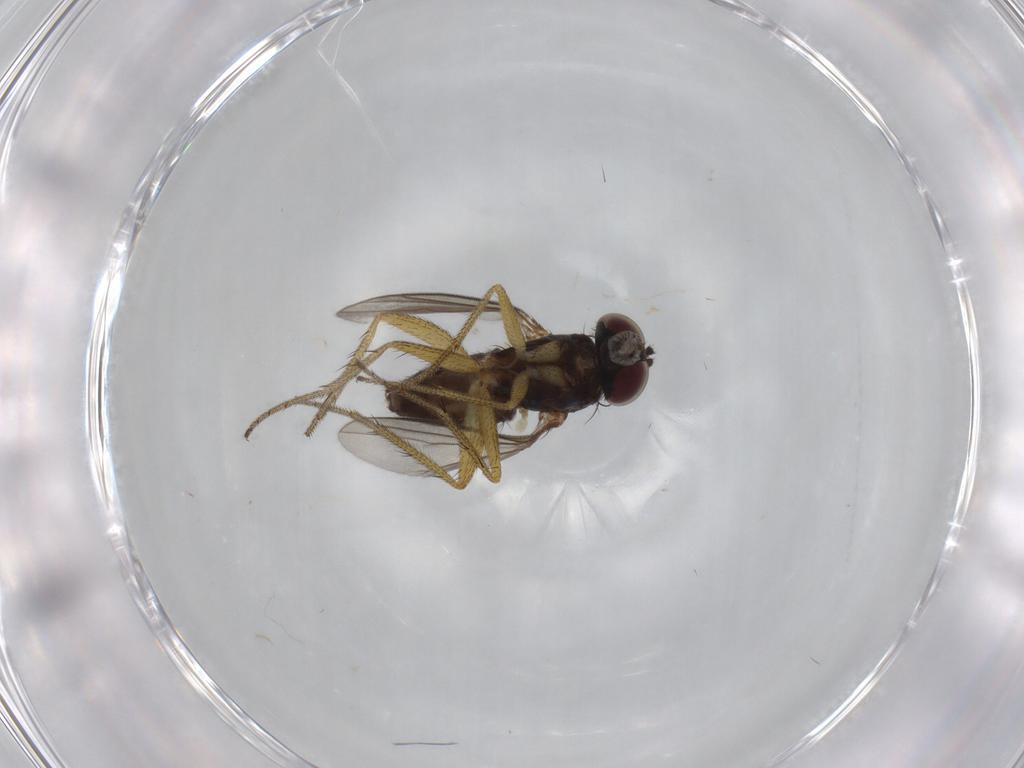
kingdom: Animalia
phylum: Arthropoda
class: Insecta
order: Diptera
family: Dolichopodidae
